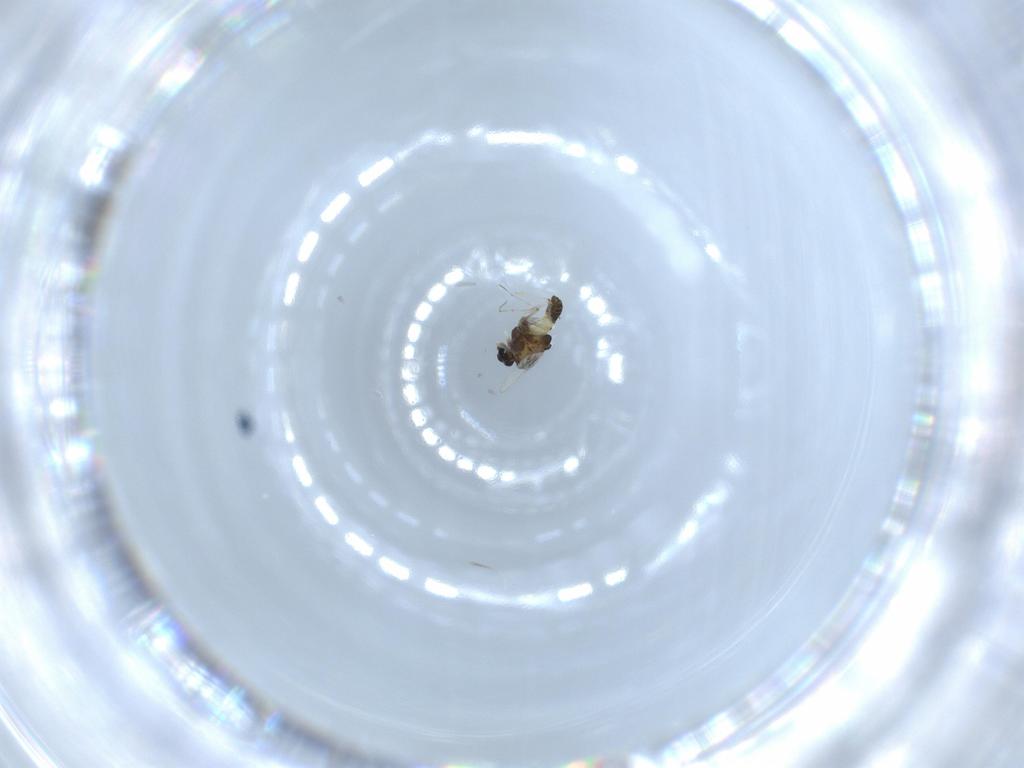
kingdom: Animalia
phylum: Arthropoda
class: Insecta
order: Diptera
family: Chironomidae
